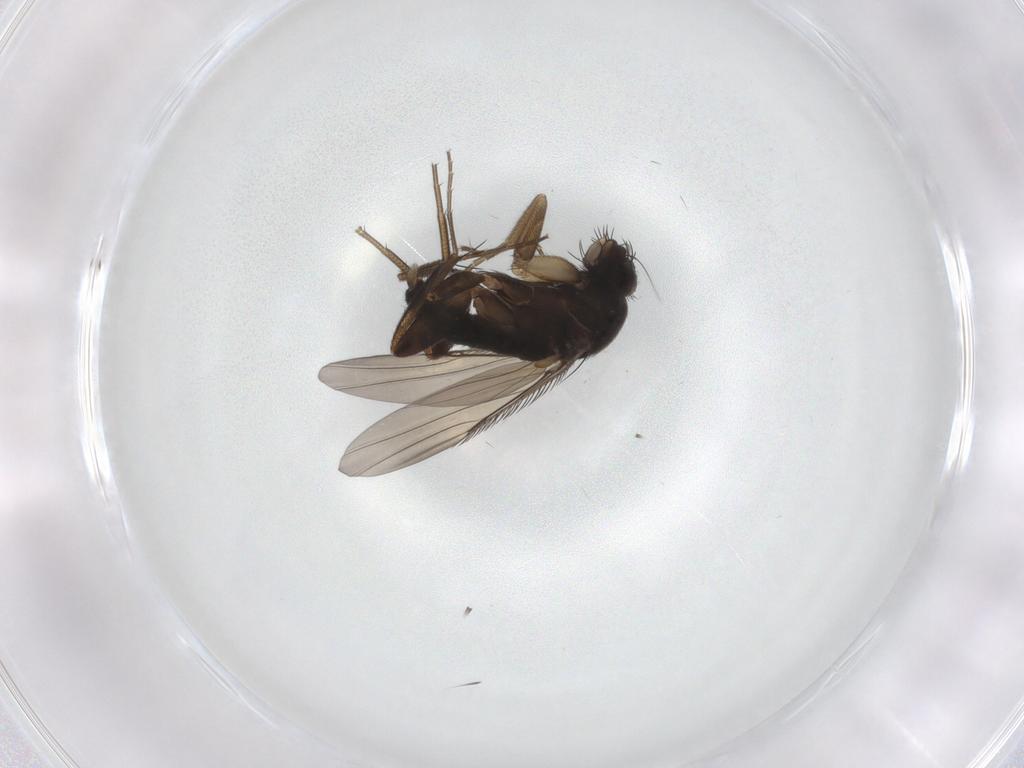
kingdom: Animalia
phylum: Arthropoda
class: Insecta
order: Diptera
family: Phoridae
